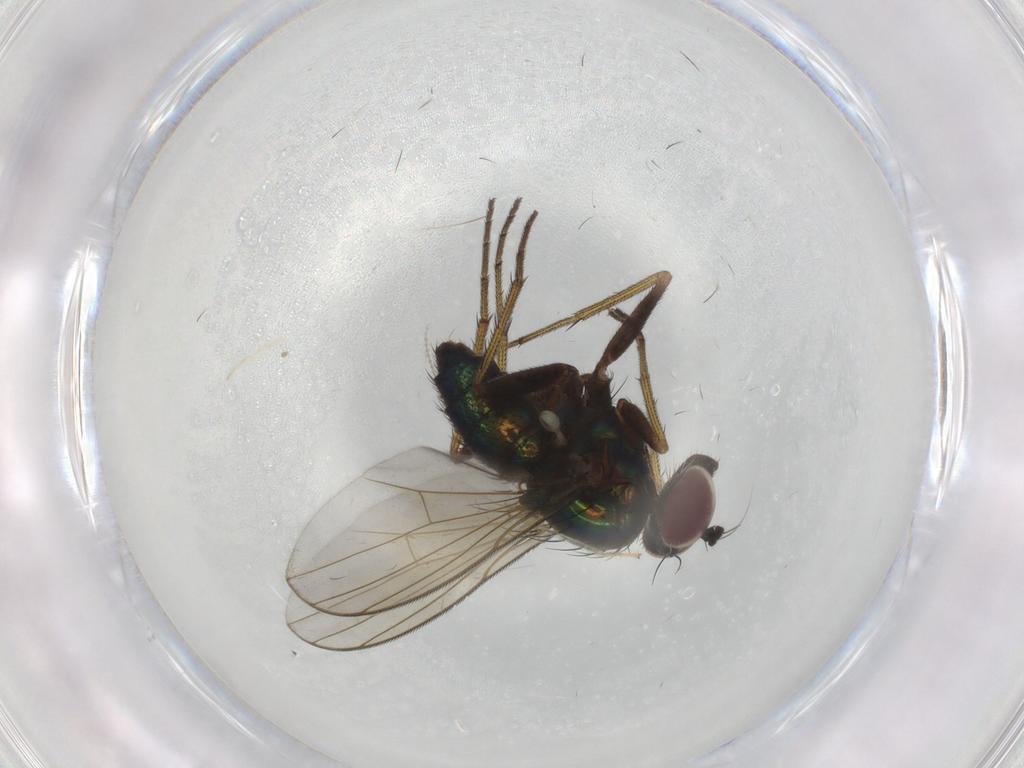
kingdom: Animalia
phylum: Arthropoda
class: Insecta
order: Diptera
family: Dolichopodidae
